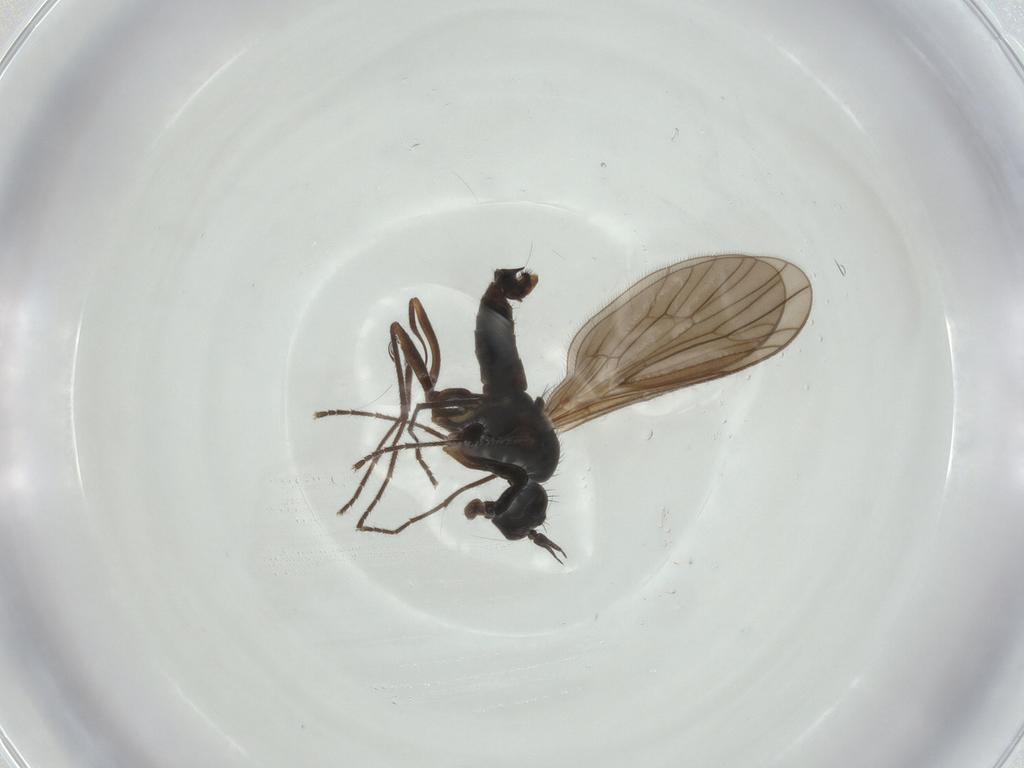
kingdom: Animalia
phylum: Arthropoda
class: Insecta
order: Diptera
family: Empididae
